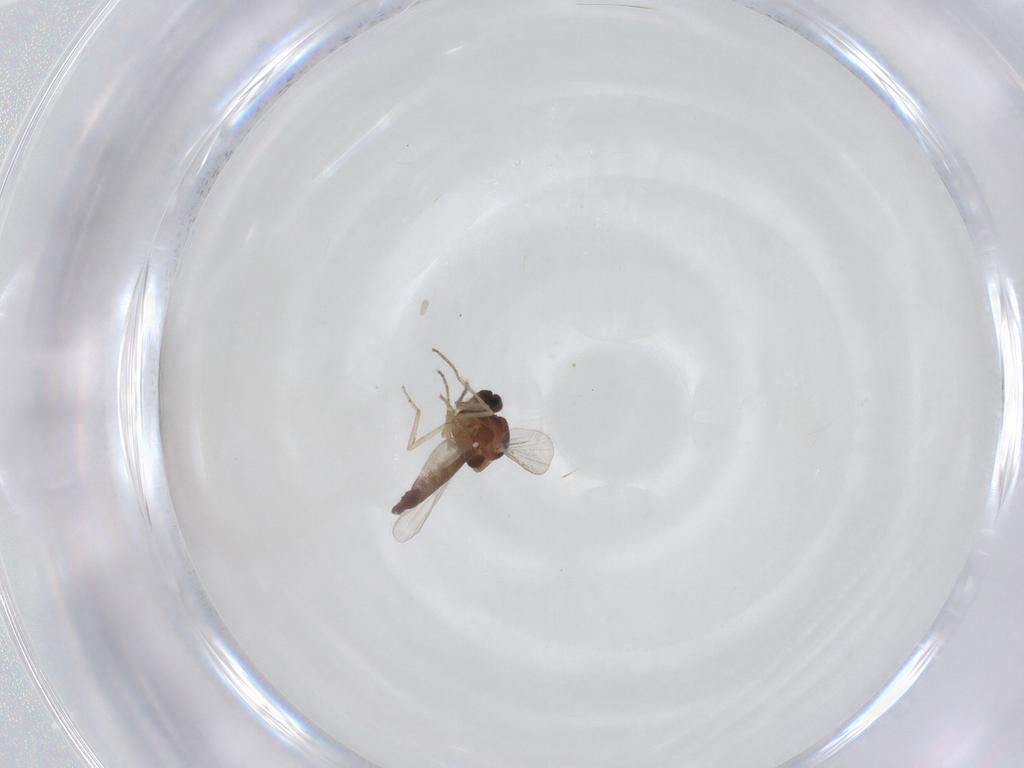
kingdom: Animalia
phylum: Arthropoda
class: Insecta
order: Diptera
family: Ceratopogonidae
